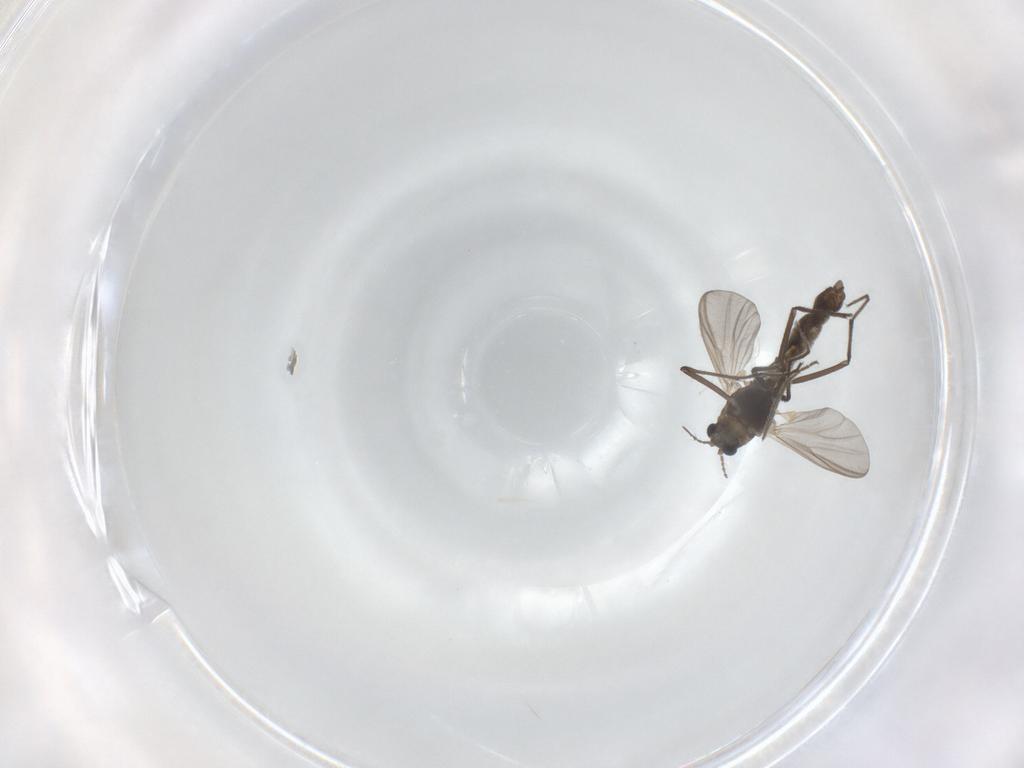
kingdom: Animalia
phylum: Arthropoda
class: Insecta
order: Diptera
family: Chironomidae
